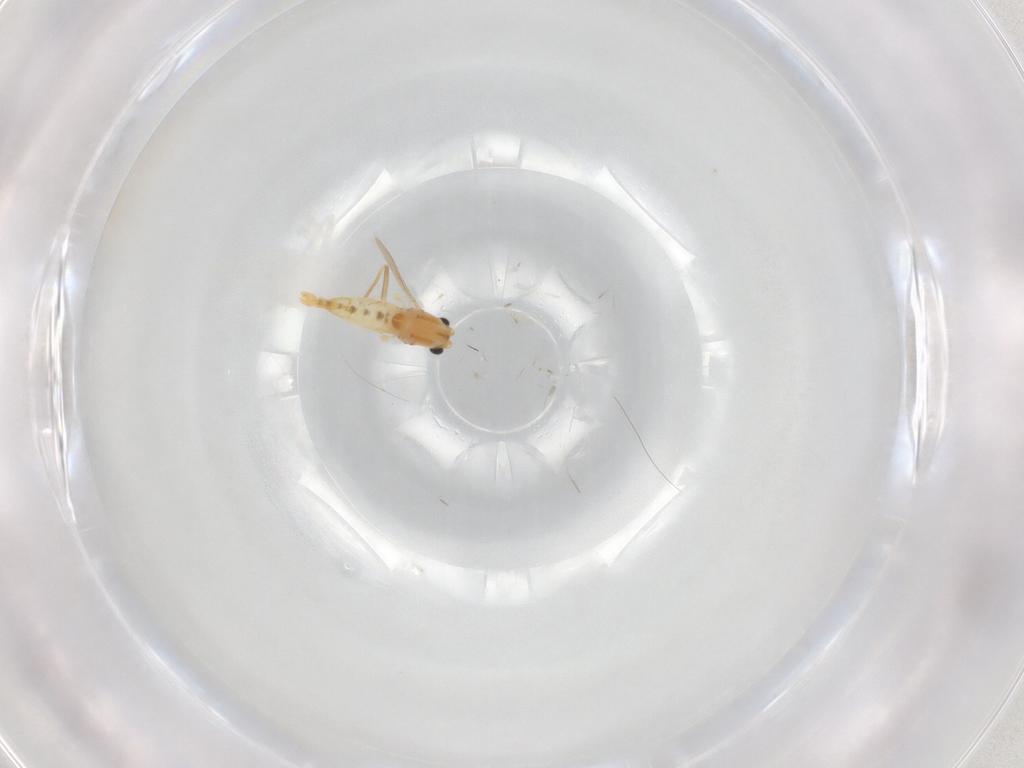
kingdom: Animalia
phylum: Arthropoda
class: Insecta
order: Diptera
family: Chironomidae
